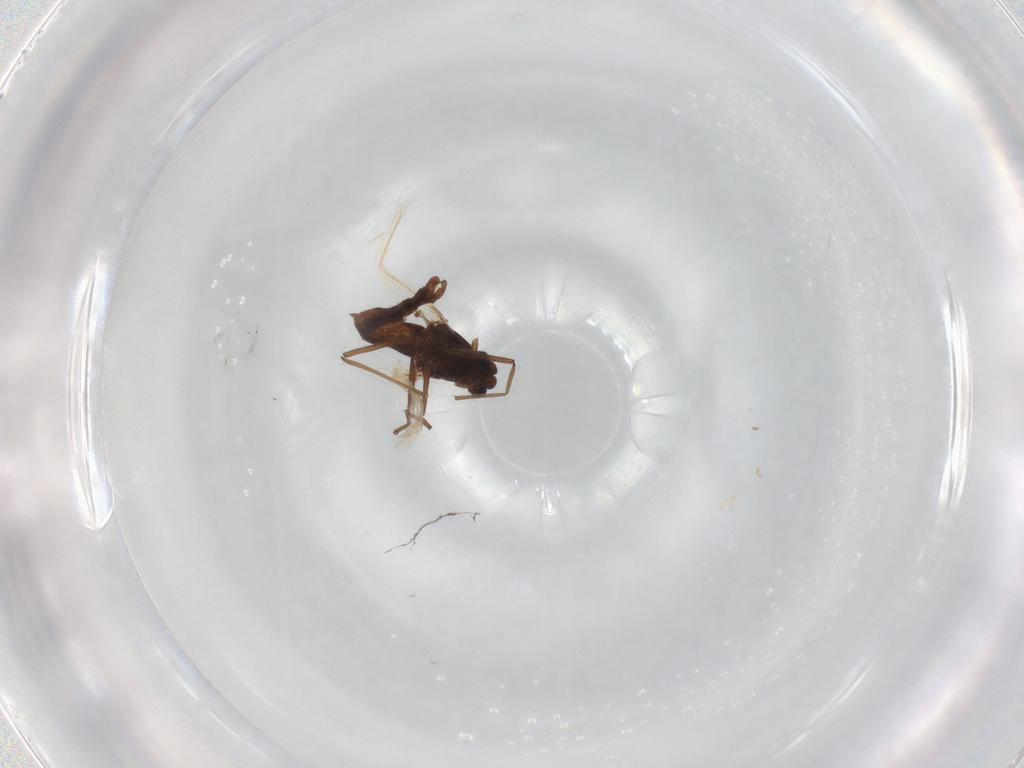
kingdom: Animalia
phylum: Arthropoda
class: Insecta
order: Diptera
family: Chironomidae
